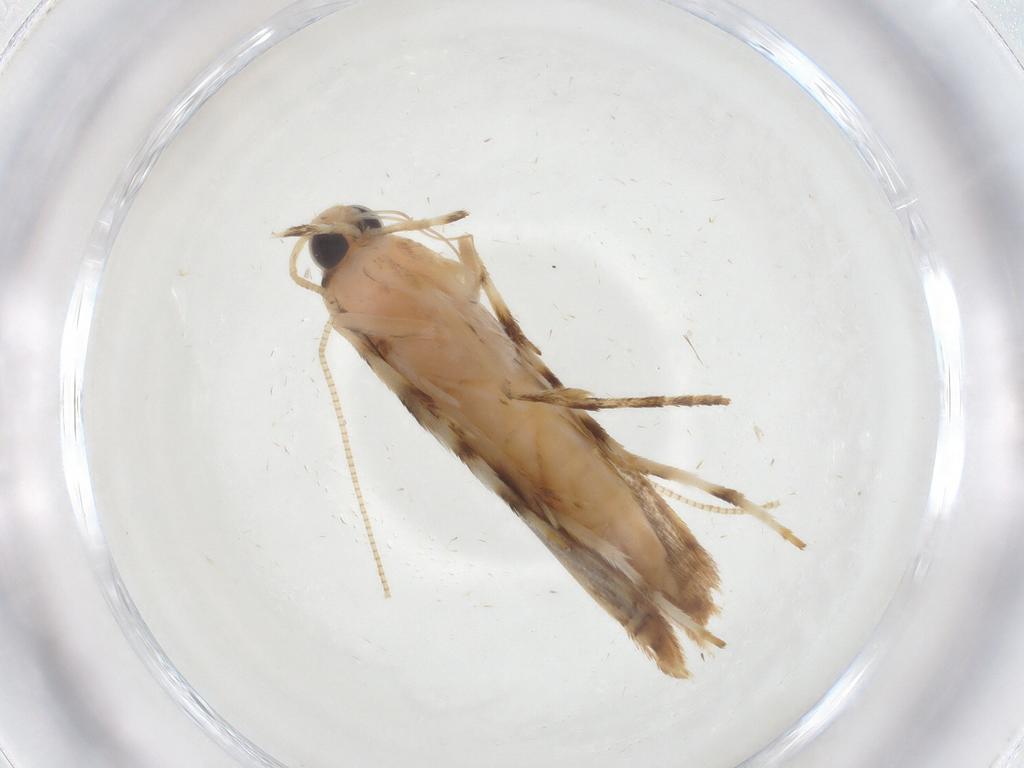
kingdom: Animalia
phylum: Arthropoda
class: Insecta
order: Lepidoptera
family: Gracillariidae
